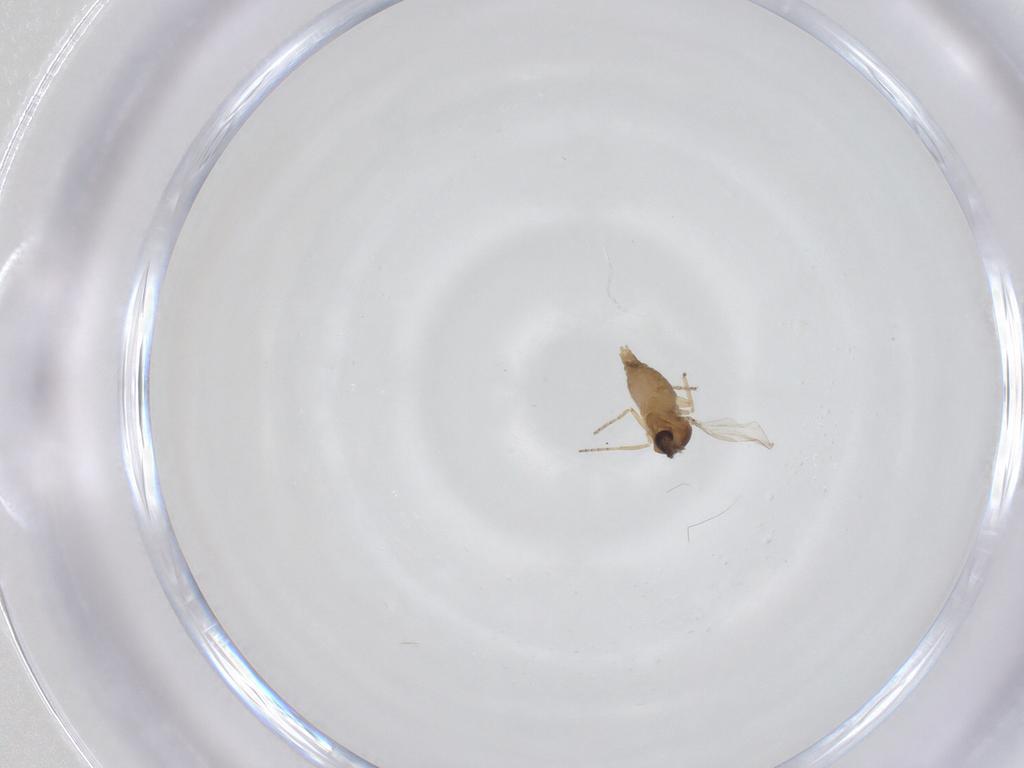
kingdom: Animalia
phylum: Arthropoda
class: Insecta
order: Diptera
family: Ceratopogonidae
